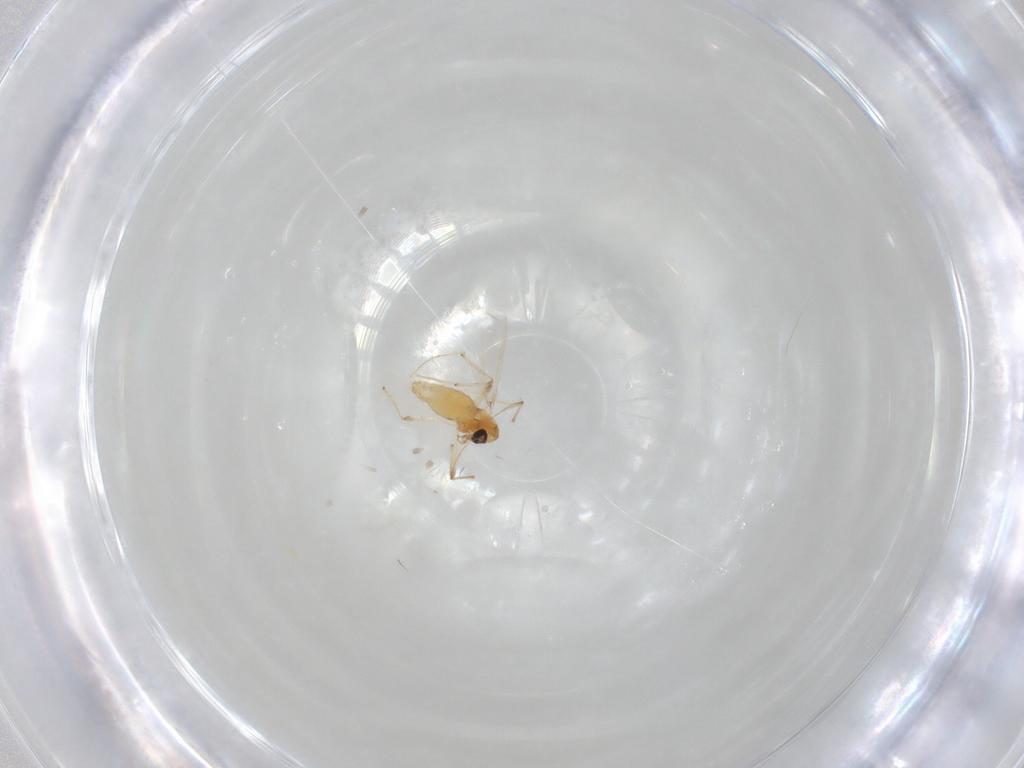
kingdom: Animalia
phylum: Arthropoda
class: Insecta
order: Diptera
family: Chironomidae
